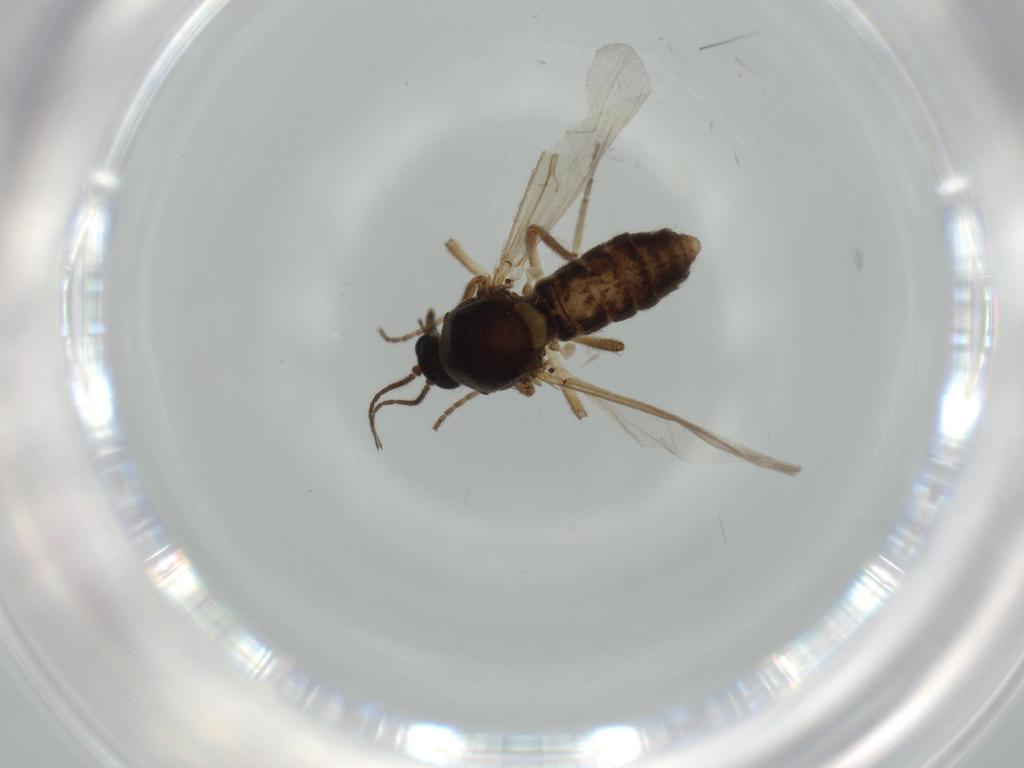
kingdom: Animalia
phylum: Arthropoda
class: Insecta
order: Diptera
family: Ceratopogonidae
